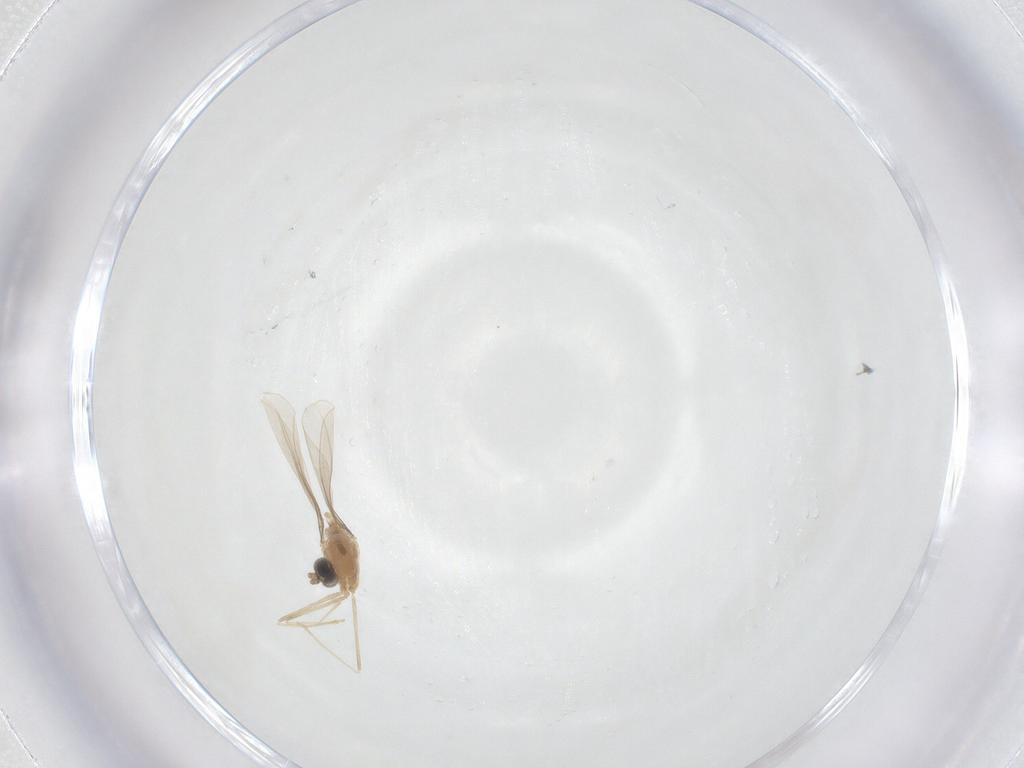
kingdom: Animalia
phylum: Arthropoda
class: Insecta
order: Diptera
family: Cecidomyiidae
